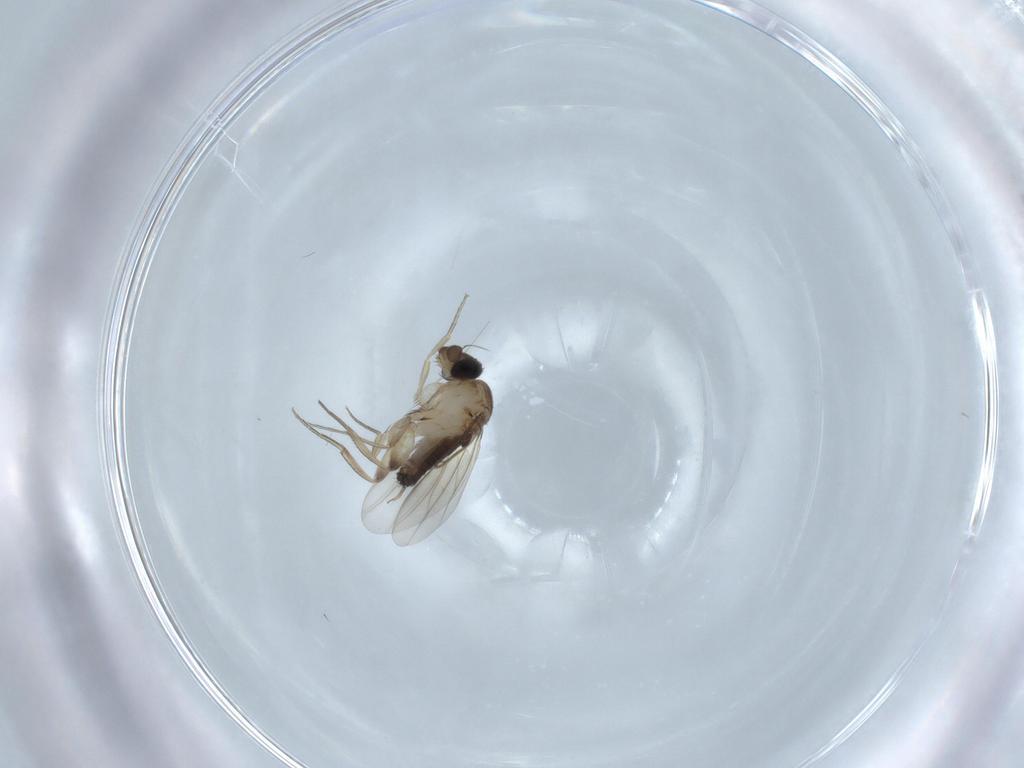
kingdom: Animalia
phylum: Arthropoda
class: Insecta
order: Diptera
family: Phoridae
